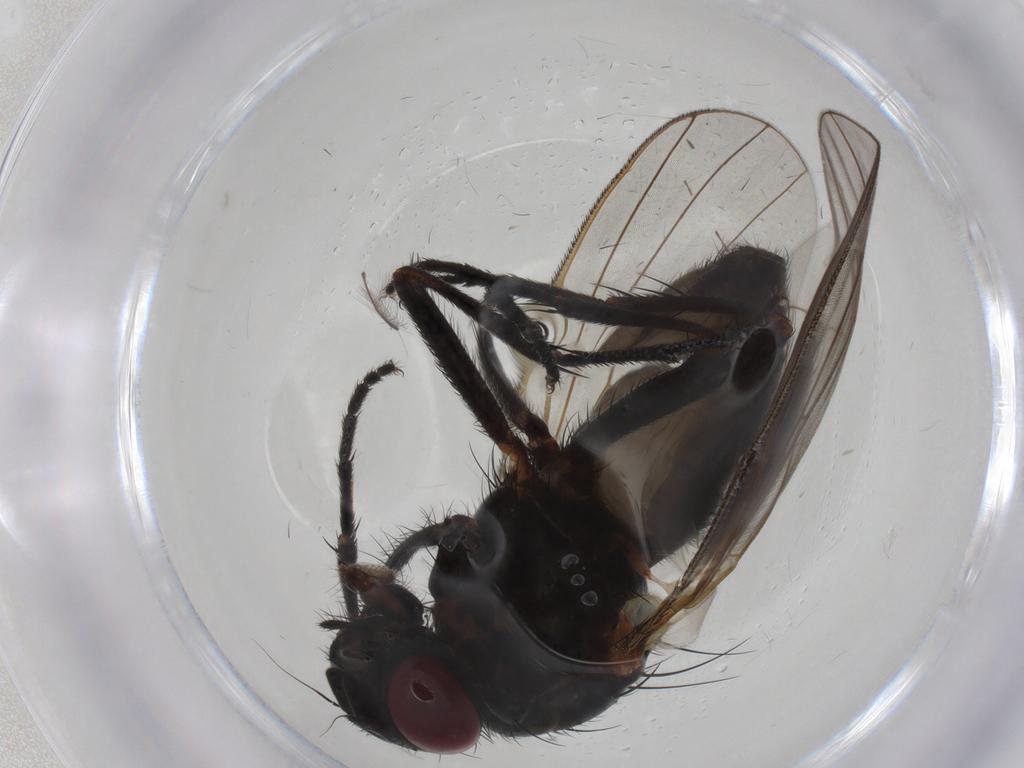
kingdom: Animalia
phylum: Arthropoda
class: Insecta
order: Diptera
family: Fanniidae
